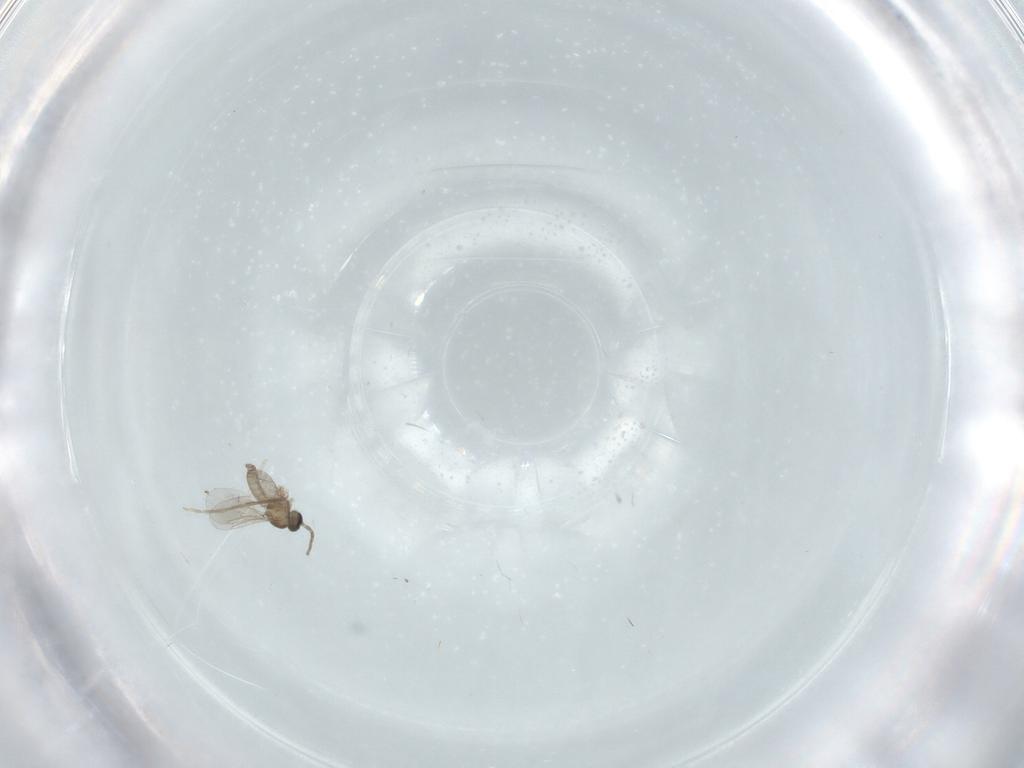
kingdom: Animalia
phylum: Arthropoda
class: Insecta
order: Diptera
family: Cecidomyiidae
